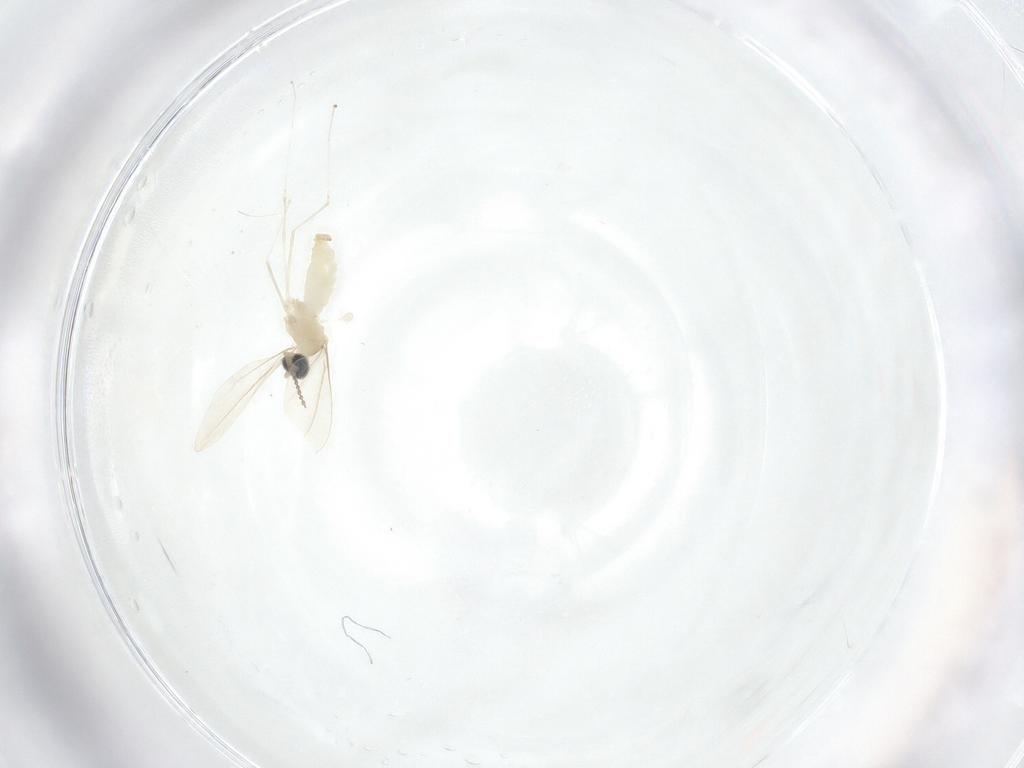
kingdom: Animalia
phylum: Arthropoda
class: Insecta
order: Diptera
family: Cecidomyiidae
